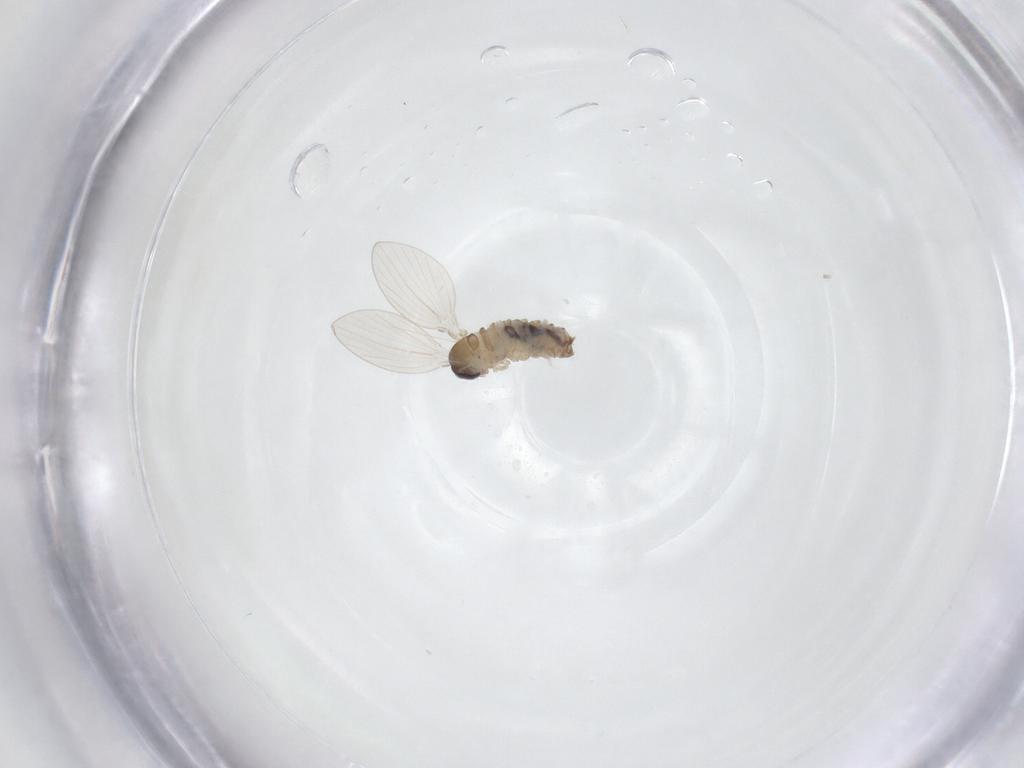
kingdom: Animalia
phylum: Arthropoda
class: Insecta
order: Diptera
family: Psychodidae
